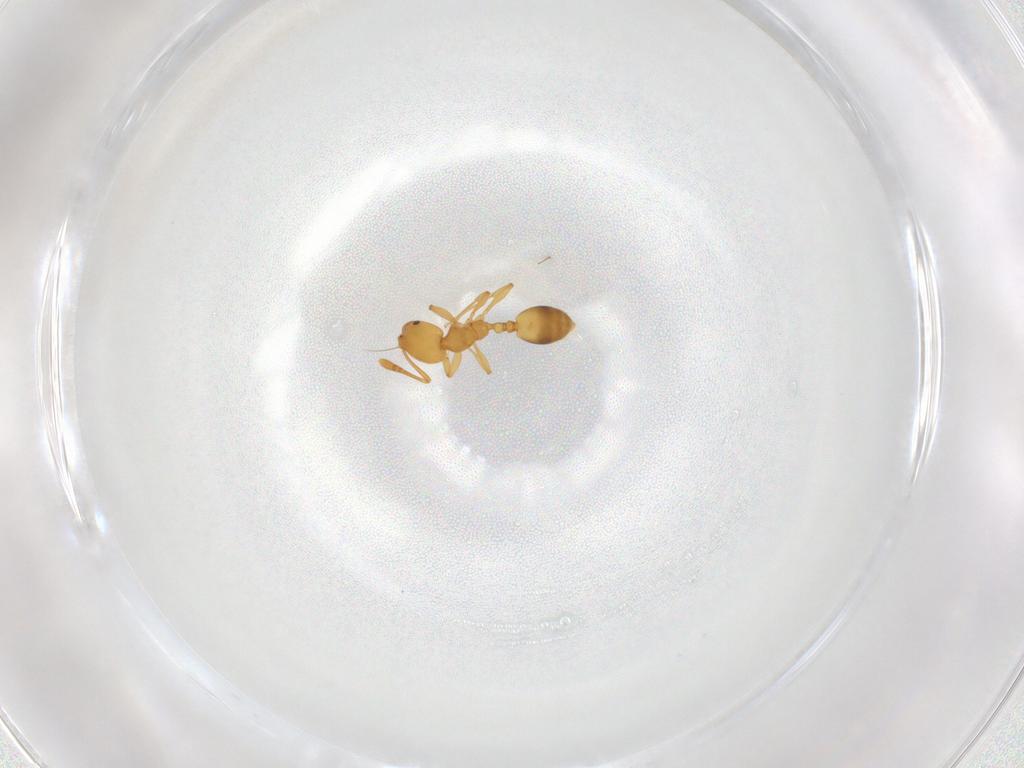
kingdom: Animalia
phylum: Arthropoda
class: Insecta
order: Hymenoptera
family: Formicidae
